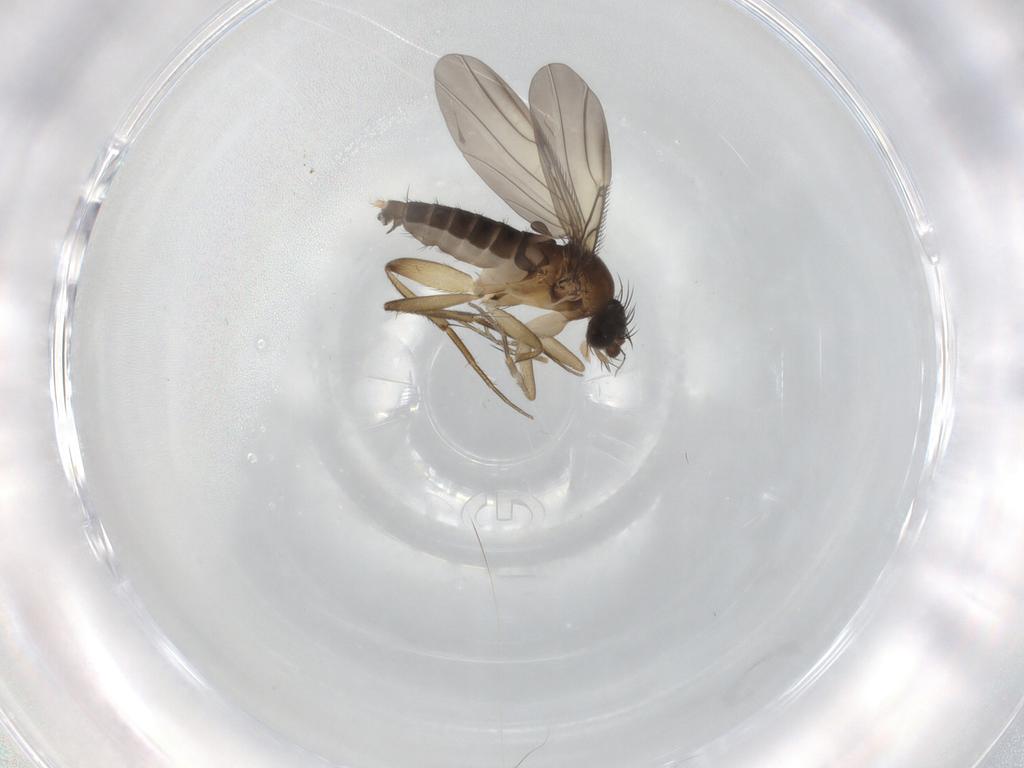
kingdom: Animalia
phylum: Arthropoda
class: Insecta
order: Diptera
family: Phoridae
